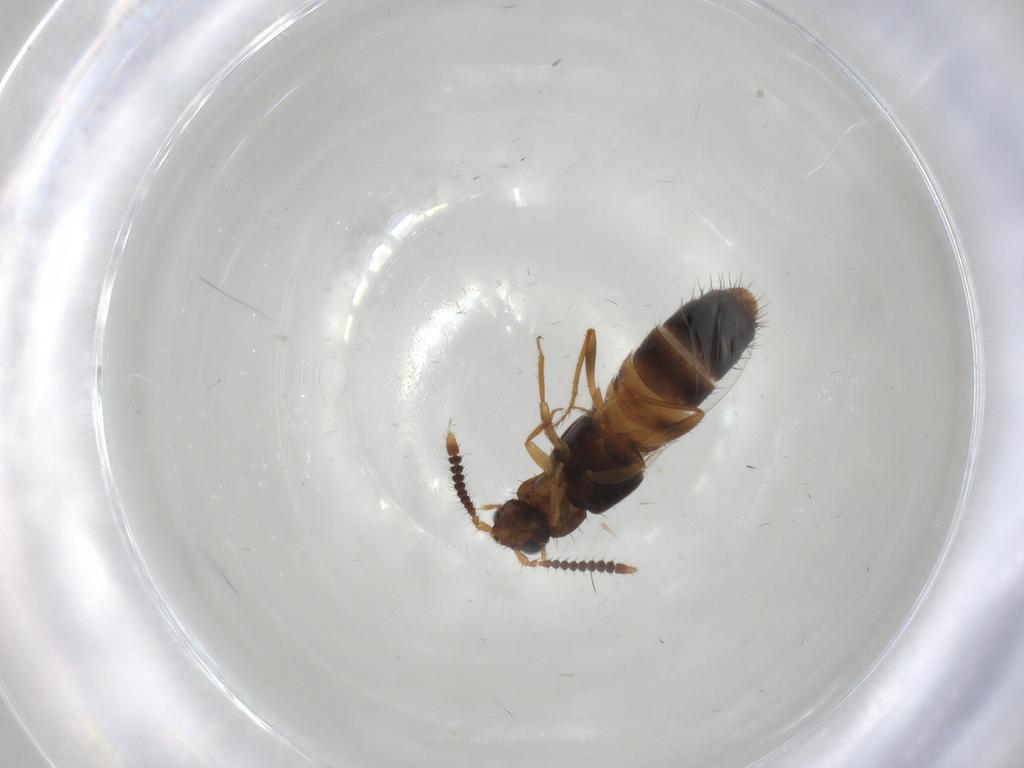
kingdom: Animalia
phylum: Arthropoda
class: Insecta
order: Coleoptera
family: Staphylinidae
